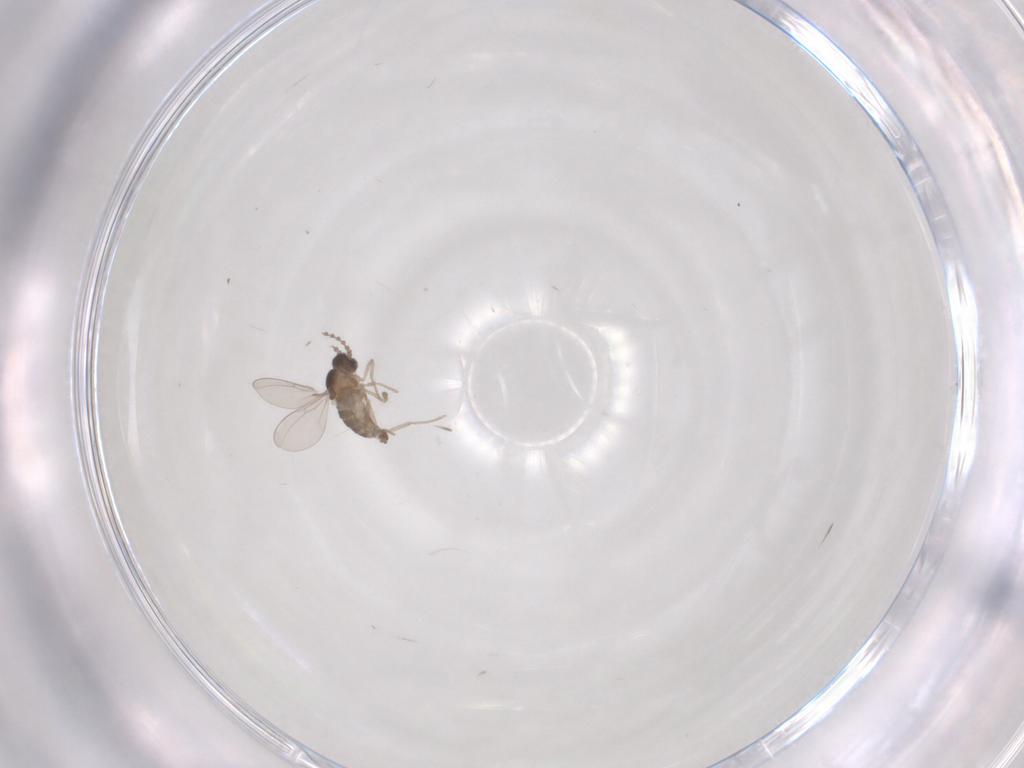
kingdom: Animalia
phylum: Arthropoda
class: Insecta
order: Diptera
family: Cecidomyiidae
